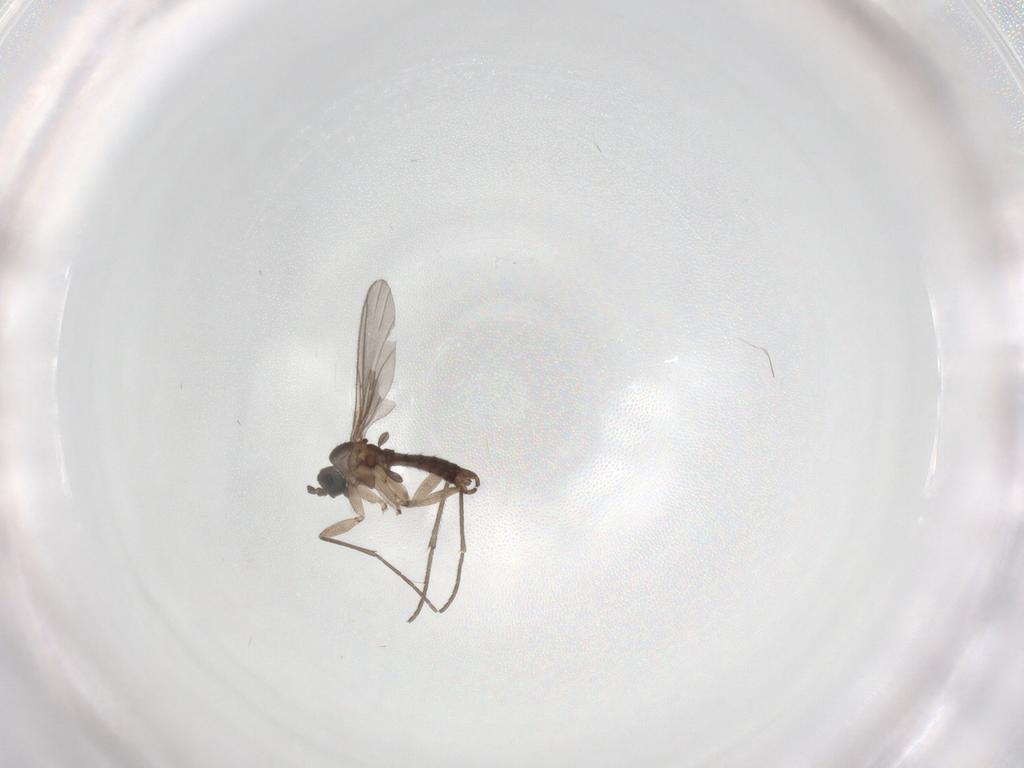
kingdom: Animalia
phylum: Arthropoda
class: Insecta
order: Diptera
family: Sciaridae
